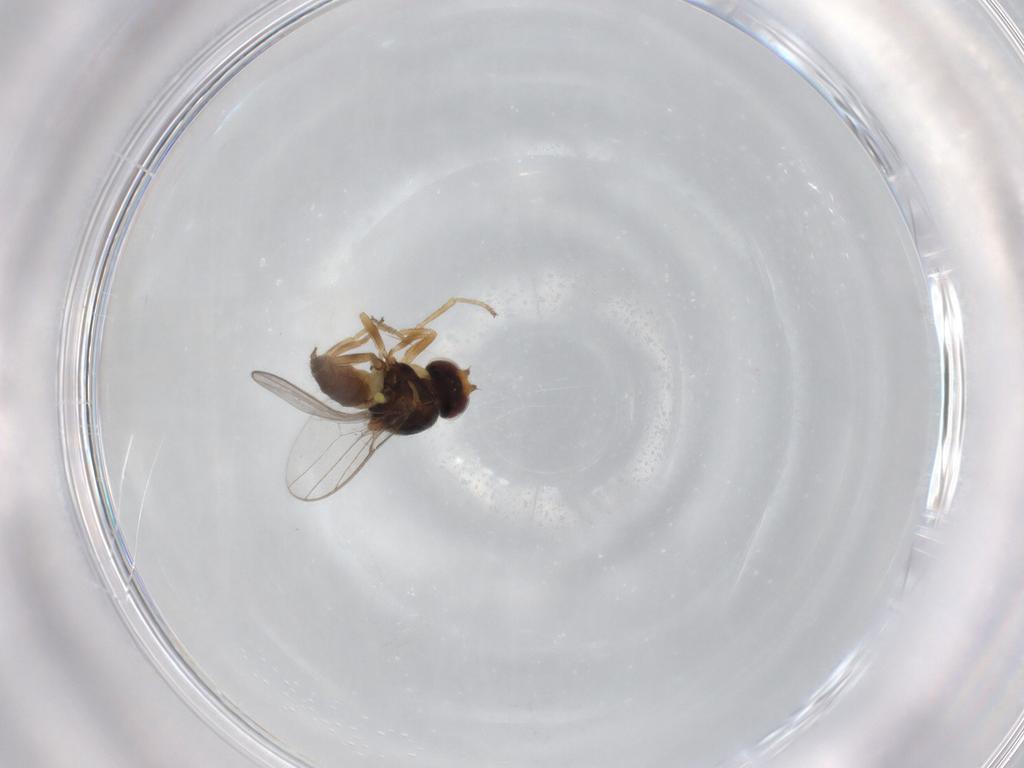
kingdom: Animalia
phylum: Arthropoda
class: Insecta
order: Diptera
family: Chloropidae
